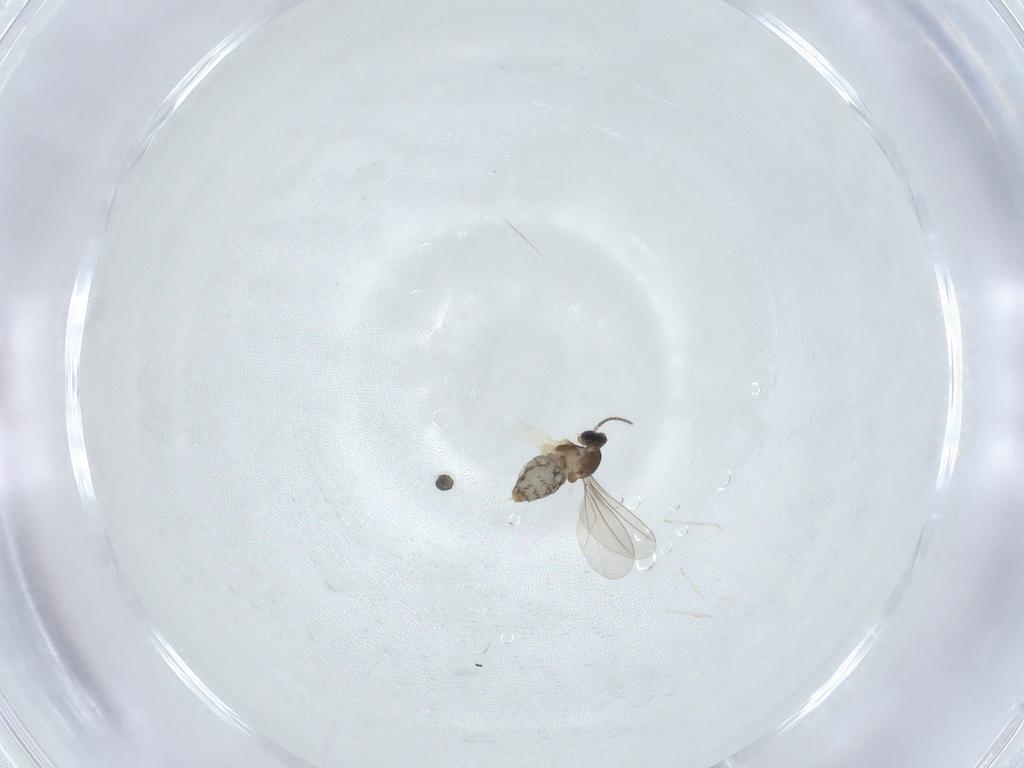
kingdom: Animalia
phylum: Arthropoda
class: Insecta
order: Diptera
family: Cecidomyiidae
